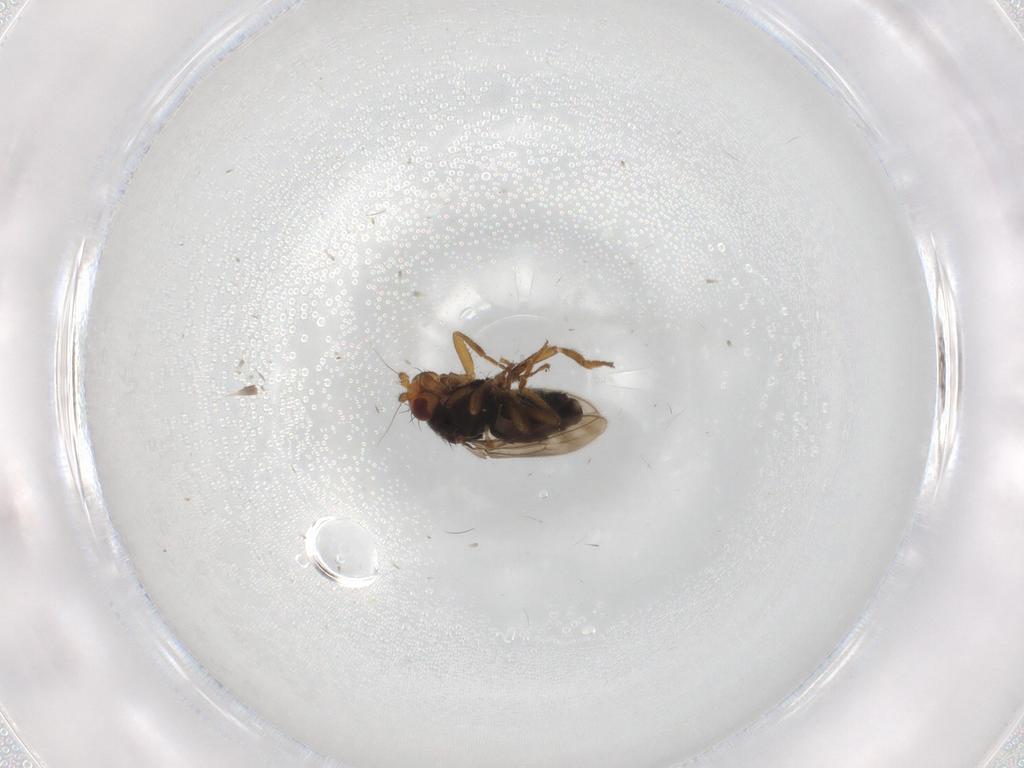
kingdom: Animalia
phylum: Arthropoda
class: Insecta
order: Diptera
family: Sphaeroceridae
